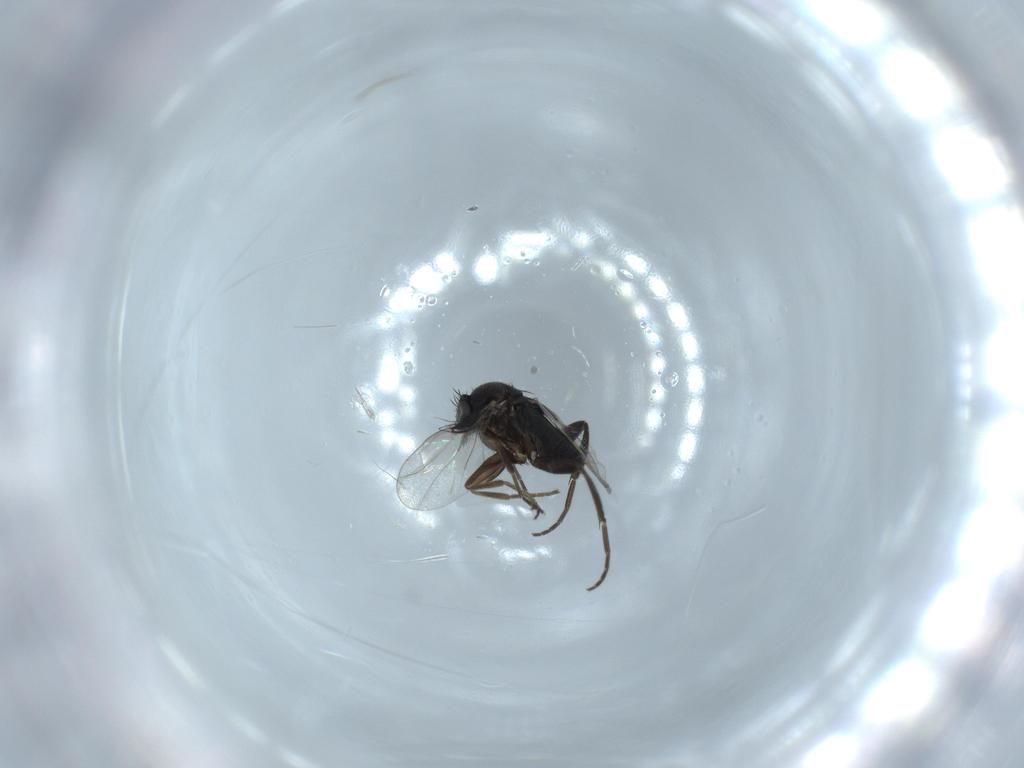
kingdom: Animalia
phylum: Arthropoda
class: Insecta
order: Diptera
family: Phoridae
